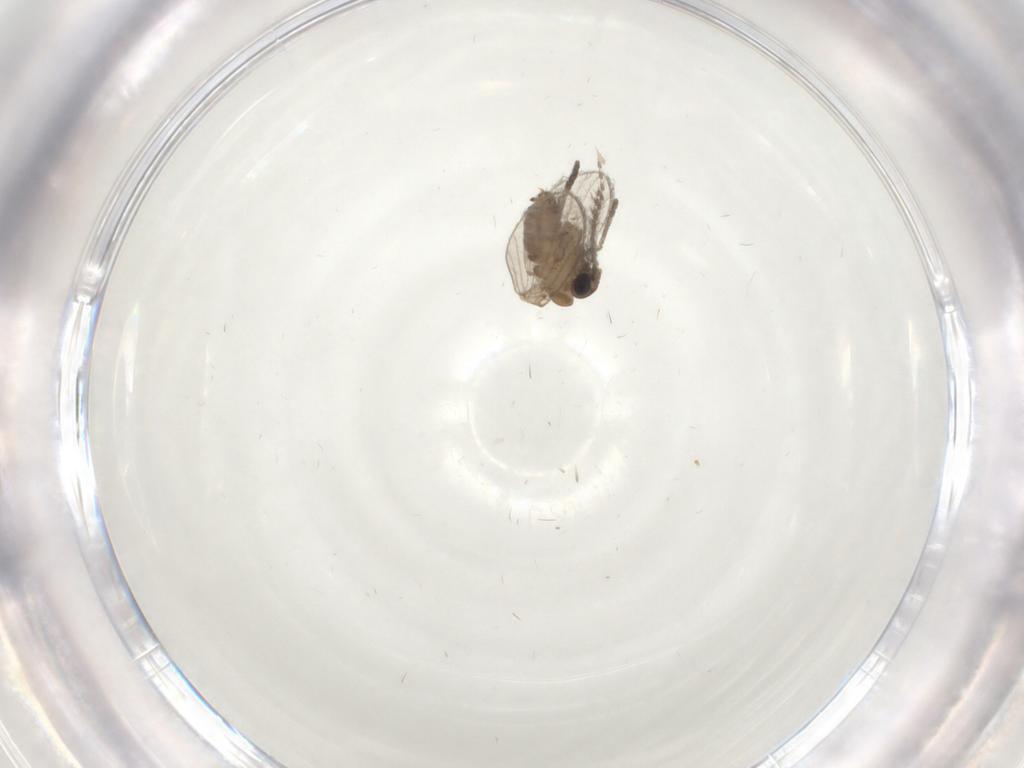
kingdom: Animalia
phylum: Arthropoda
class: Insecta
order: Diptera
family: Ceratopogonidae
